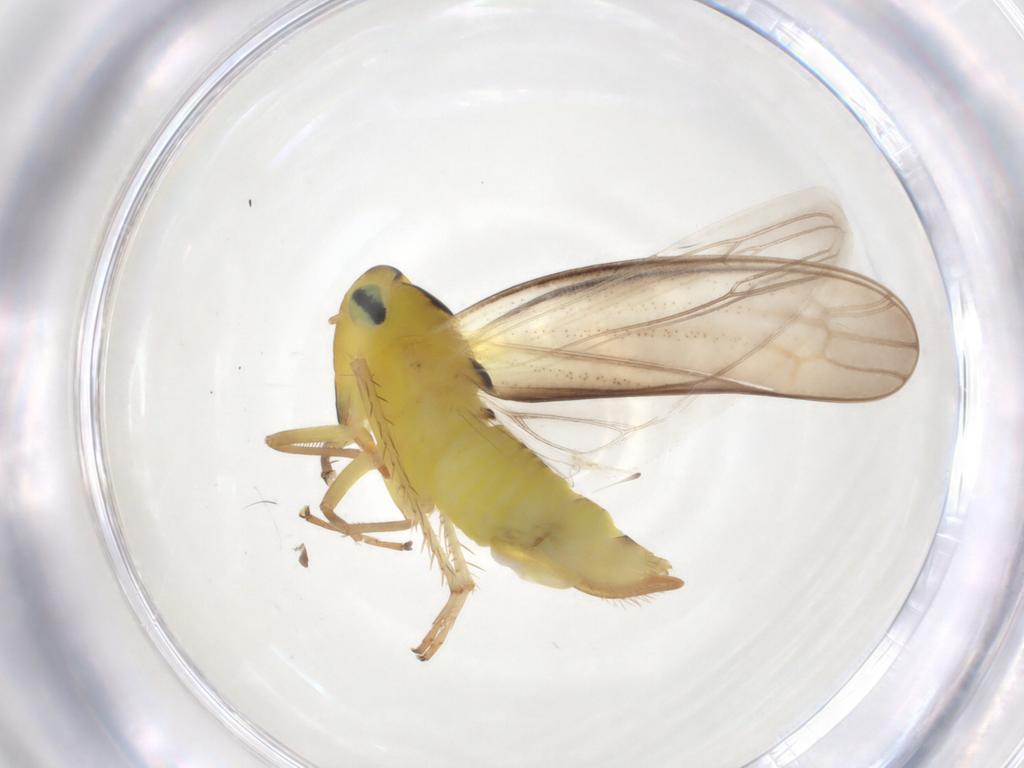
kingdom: Animalia
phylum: Arthropoda
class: Insecta
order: Hemiptera
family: Cicadellidae
